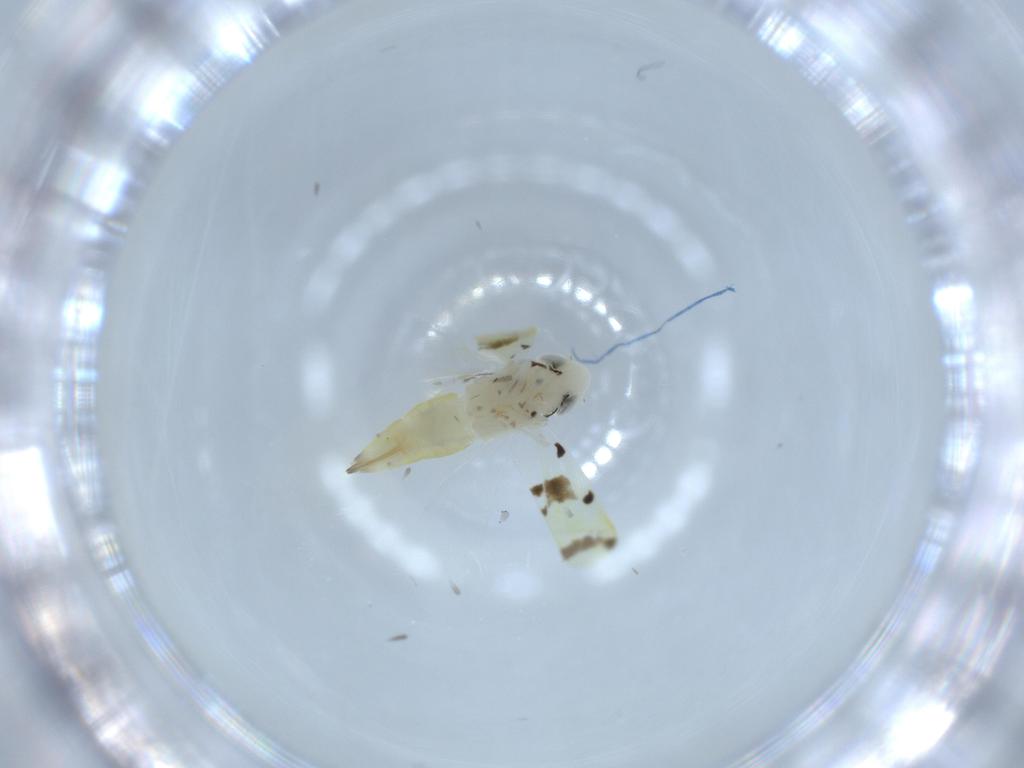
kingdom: Animalia
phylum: Arthropoda
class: Insecta
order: Hemiptera
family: Cicadellidae
